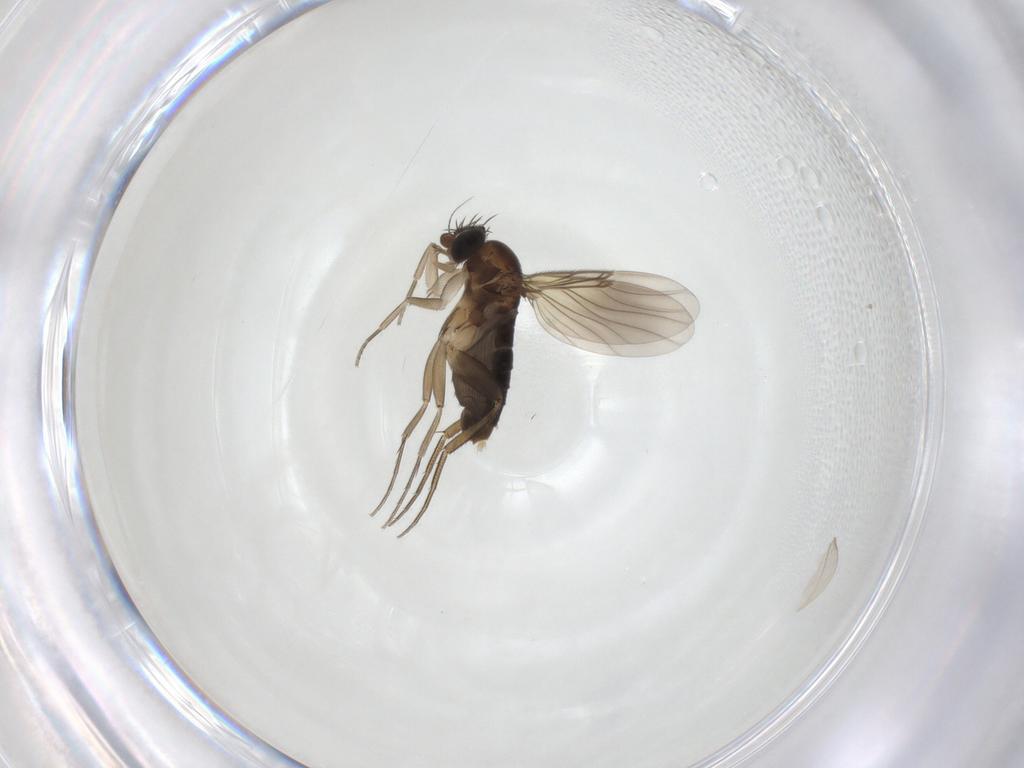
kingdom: Animalia
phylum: Arthropoda
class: Insecta
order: Diptera
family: Phoridae
